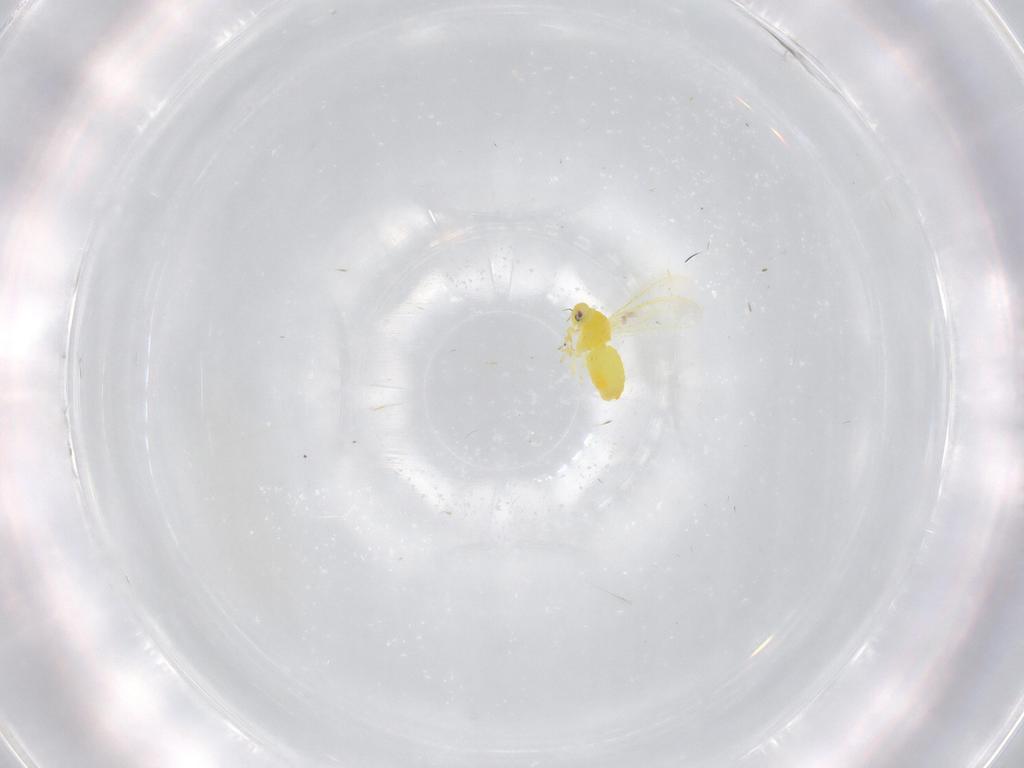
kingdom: Animalia
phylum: Arthropoda
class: Insecta
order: Hemiptera
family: Aleyrodidae
